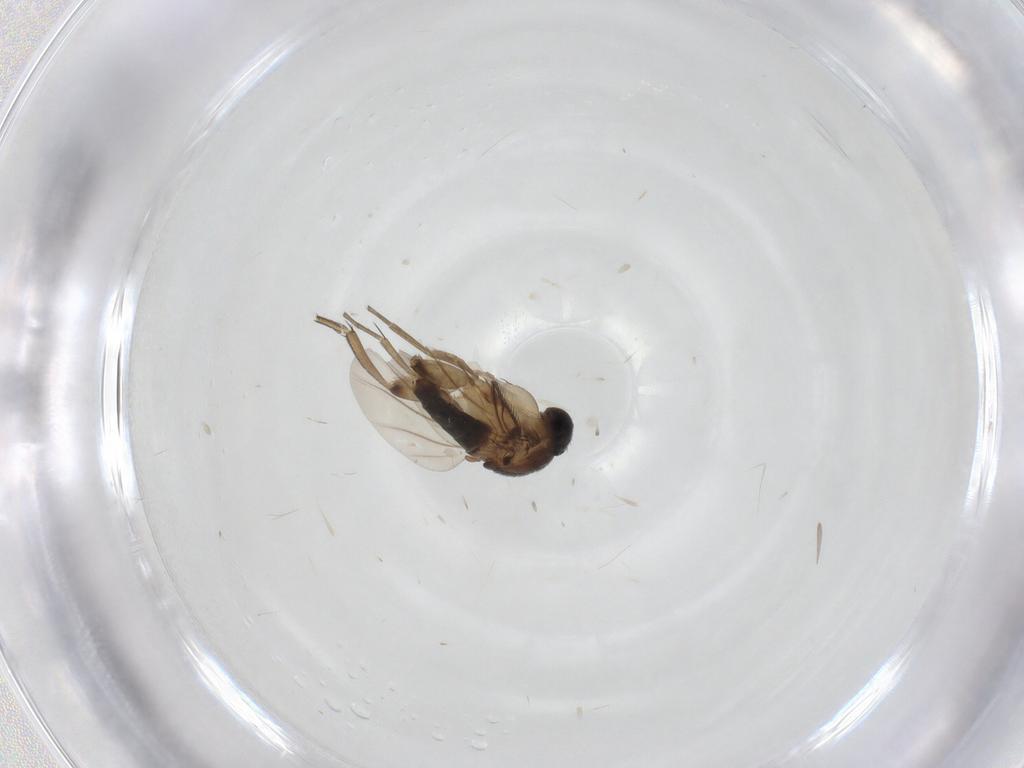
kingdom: Animalia
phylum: Arthropoda
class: Insecta
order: Diptera
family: Phoridae
